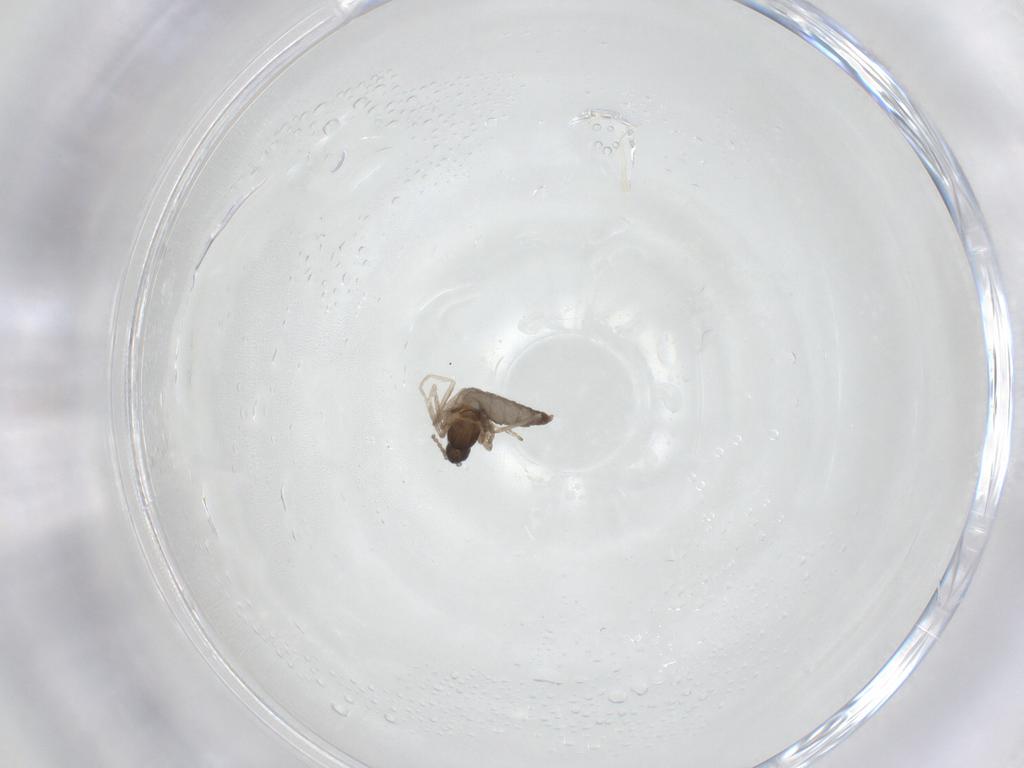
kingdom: Animalia
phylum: Arthropoda
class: Insecta
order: Diptera
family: Cecidomyiidae
